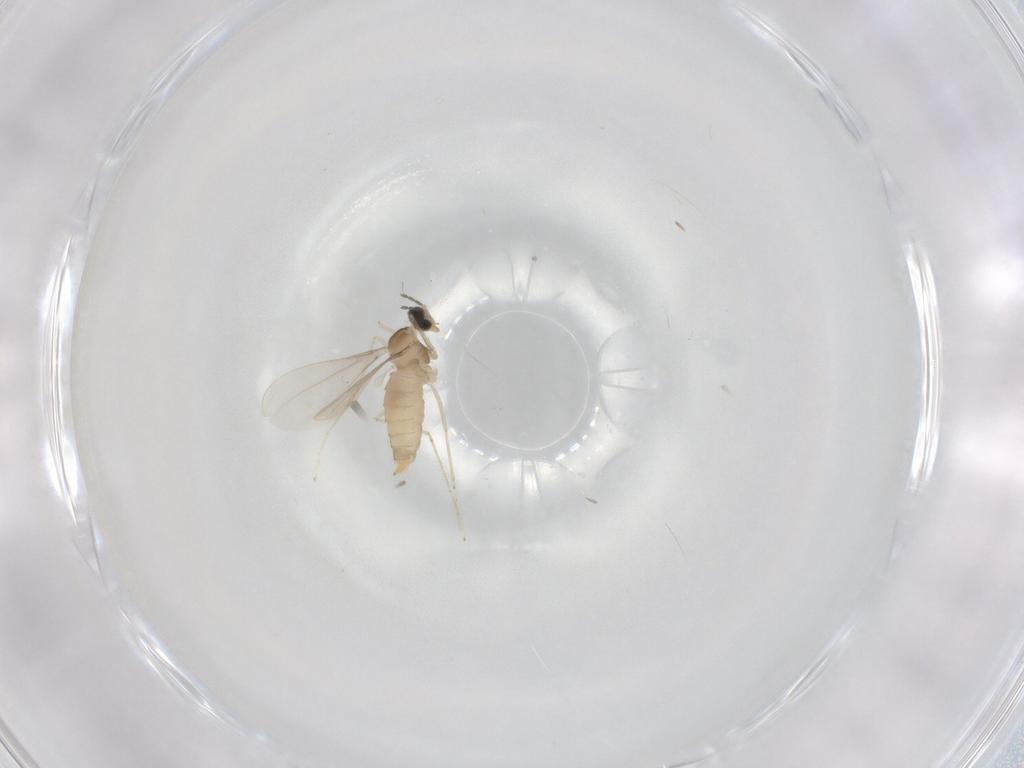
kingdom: Animalia
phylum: Arthropoda
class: Insecta
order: Diptera
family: Cecidomyiidae
